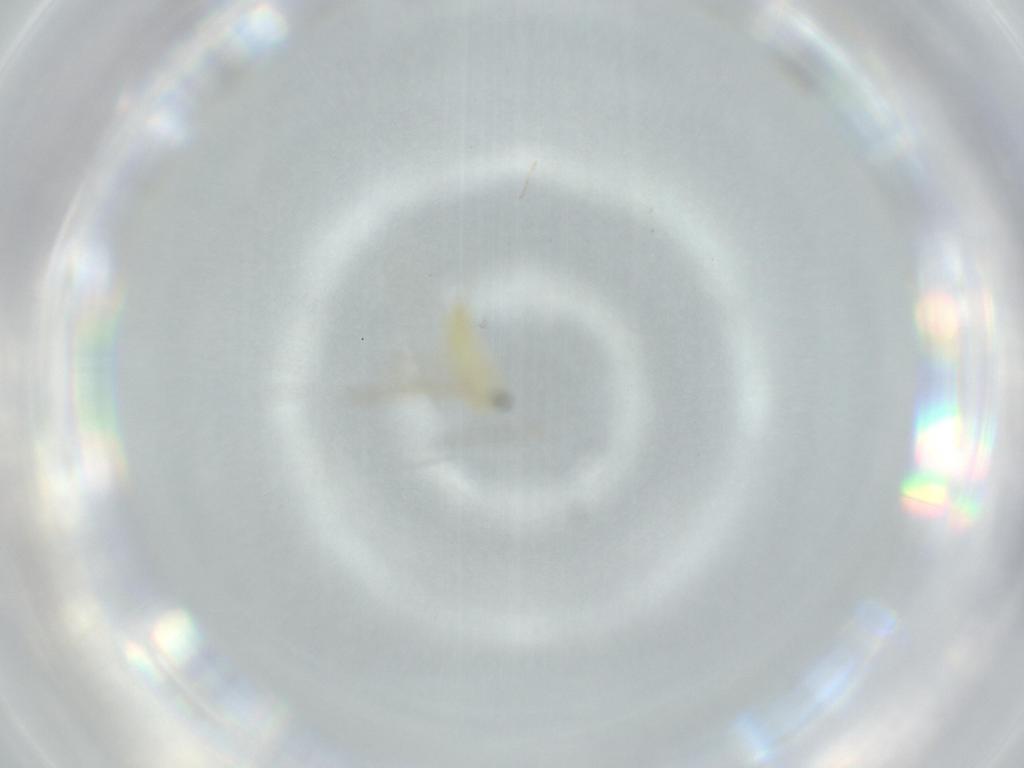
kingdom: Animalia
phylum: Arthropoda
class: Insecta
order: Diptera
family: Chironomidae
